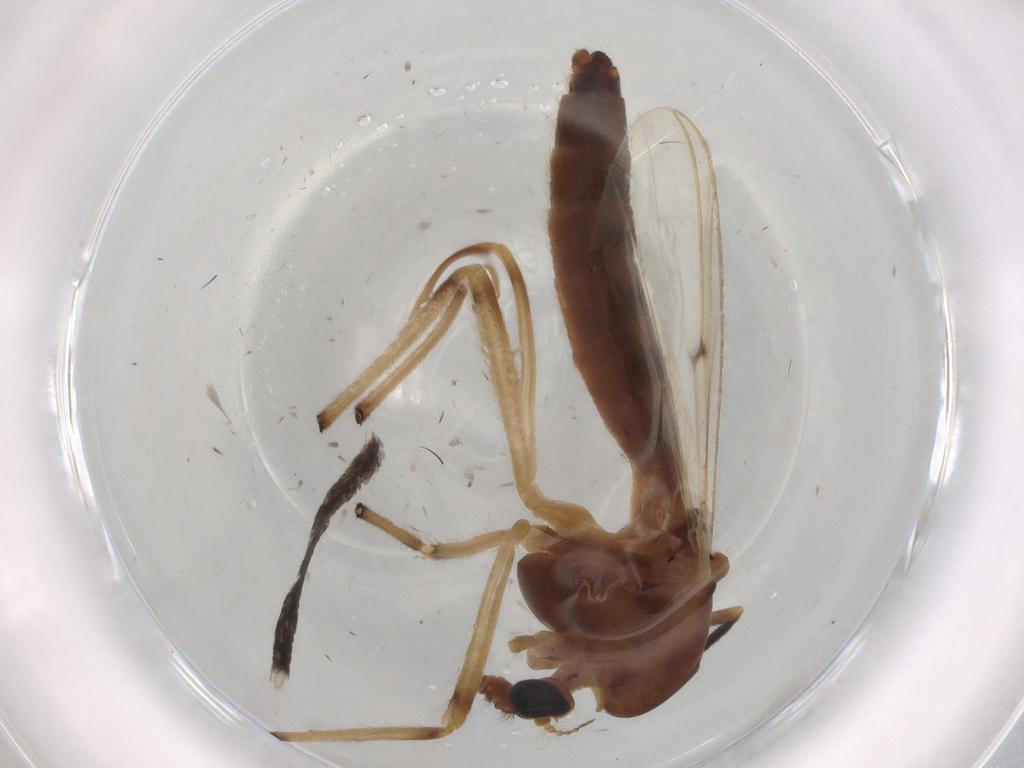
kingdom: Animalia
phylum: Arthropoda
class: Insecta
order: Diptera
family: Chironomidae
